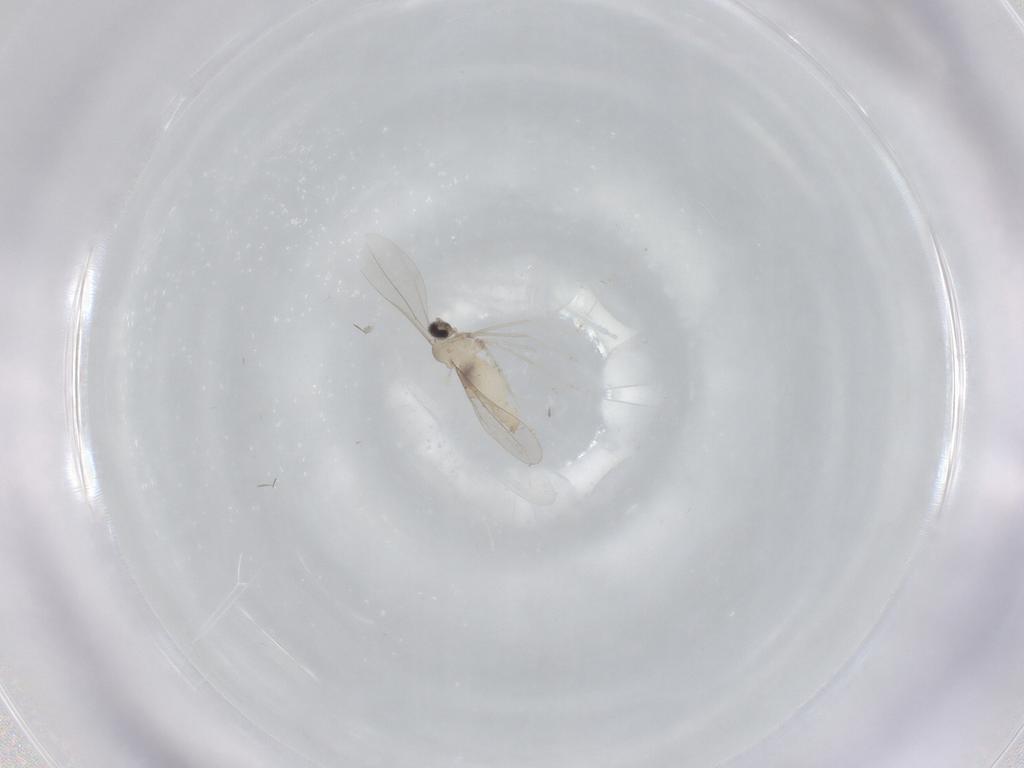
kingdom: Animalia
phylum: Arthropoda
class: Insecta
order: Diptera
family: Cecidomyiidae
